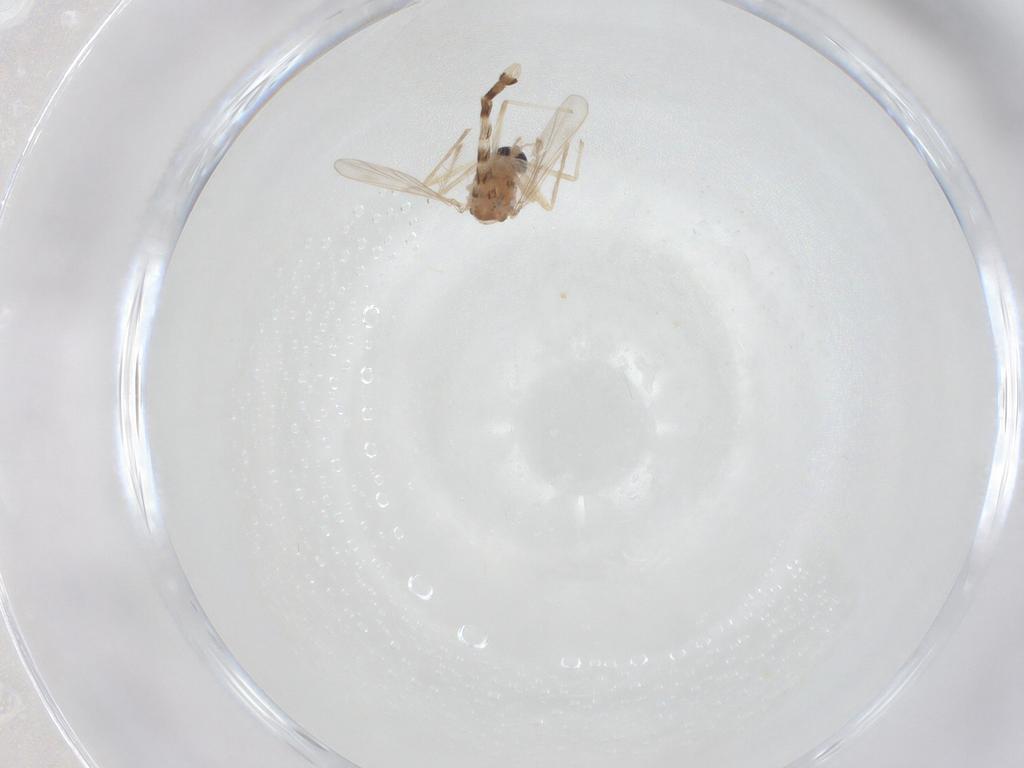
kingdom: Animalia
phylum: Arthropoda
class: Insecta
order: Diptera
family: Chironomidae
